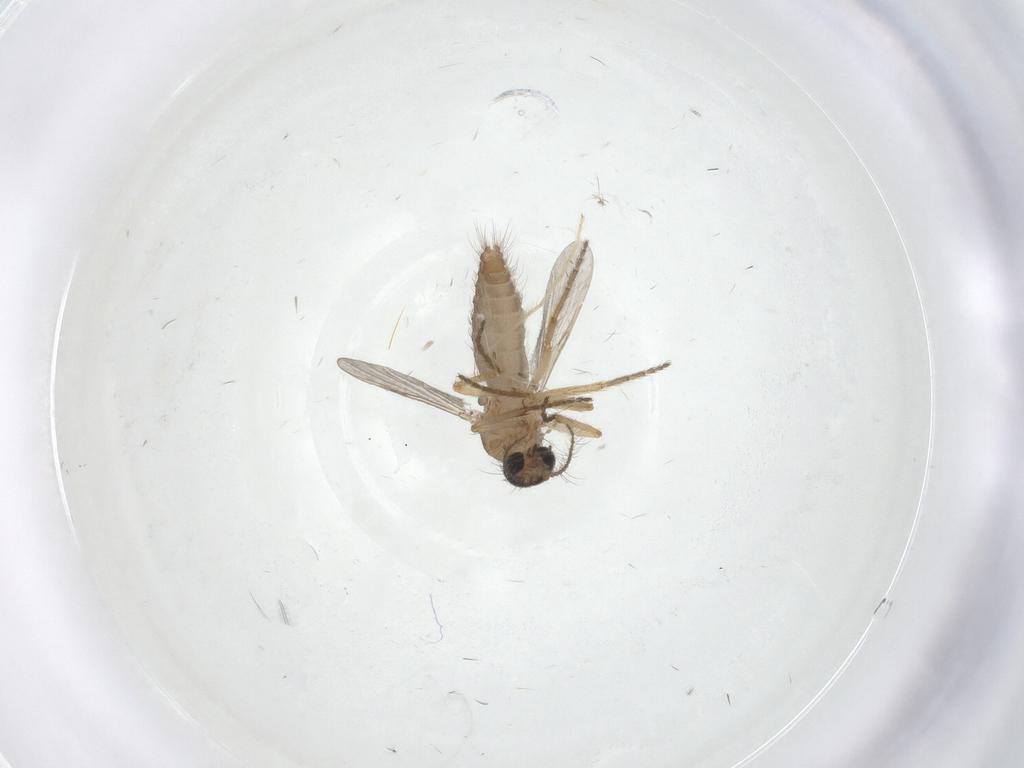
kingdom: Animalia
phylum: Arthropoda
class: Insecta
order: Diptera
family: Ceratopogonidae
